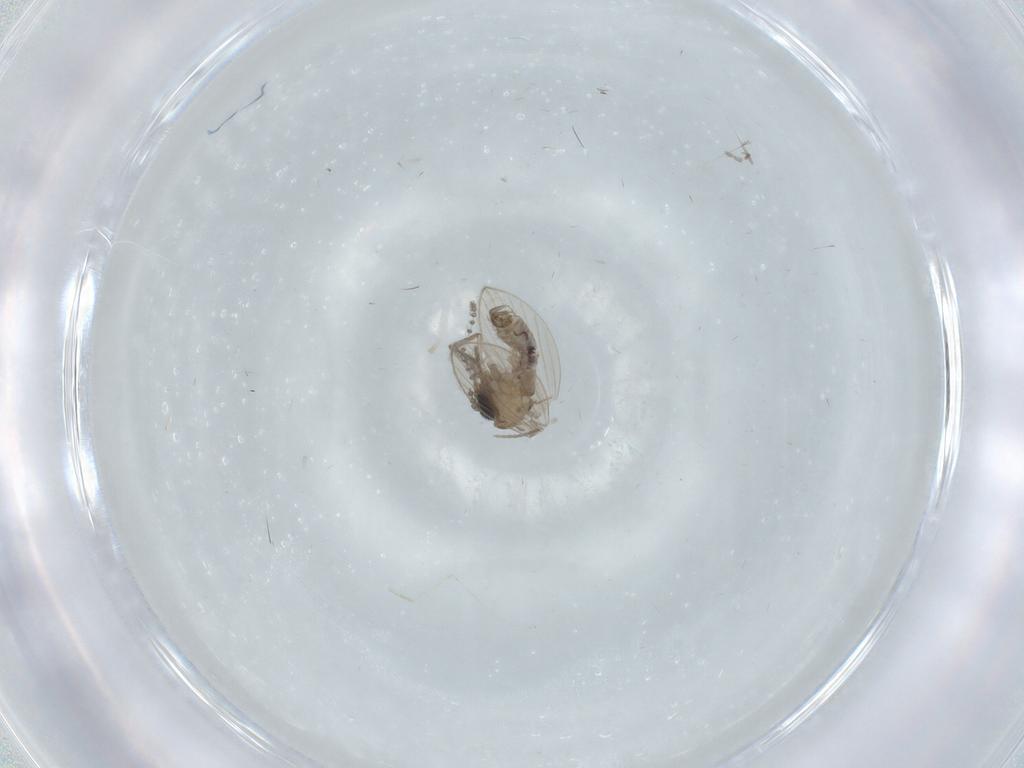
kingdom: Animalia
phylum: Arthropoda
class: Insecta
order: Diptera
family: Psychodidae
